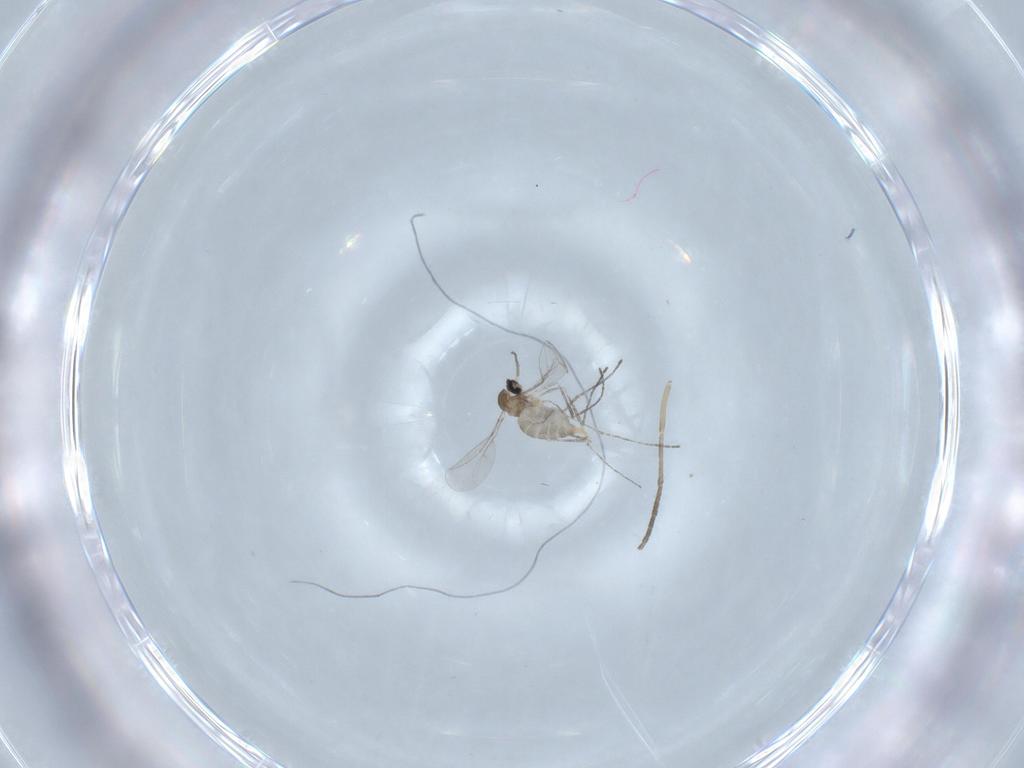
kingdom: Animalia
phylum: Arthropoda
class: Insecta
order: Diptera
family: Cecidomyiidae
